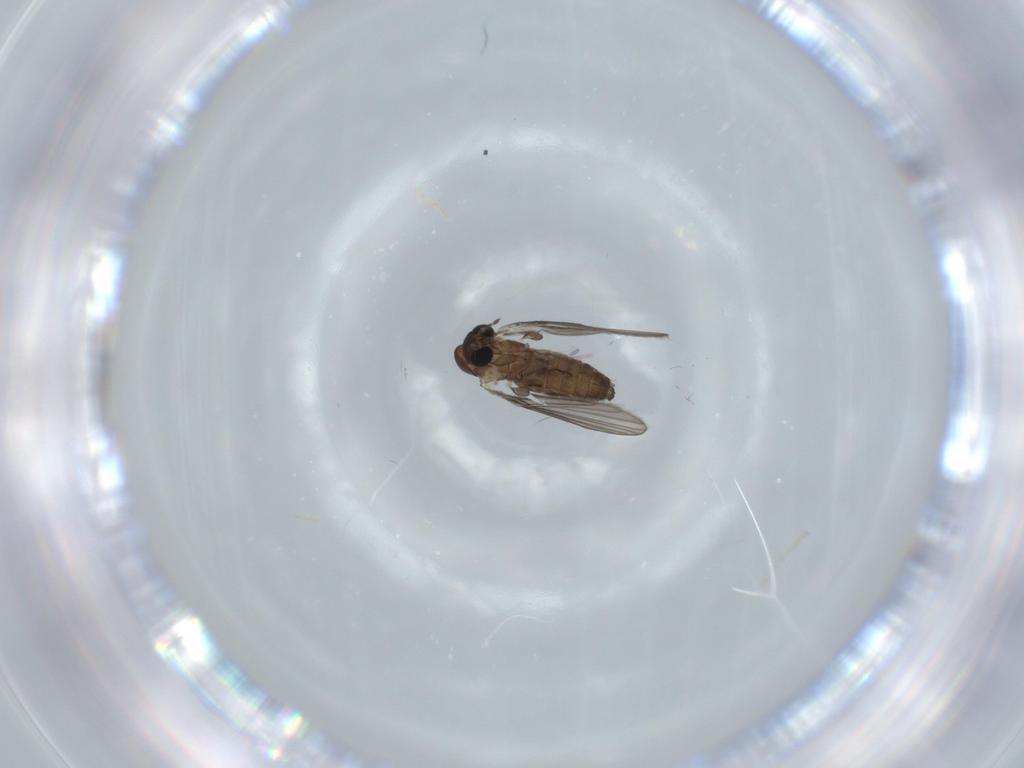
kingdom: Animalia
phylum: Arthropoda
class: Insecta
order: Diptera
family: Psychodidae
